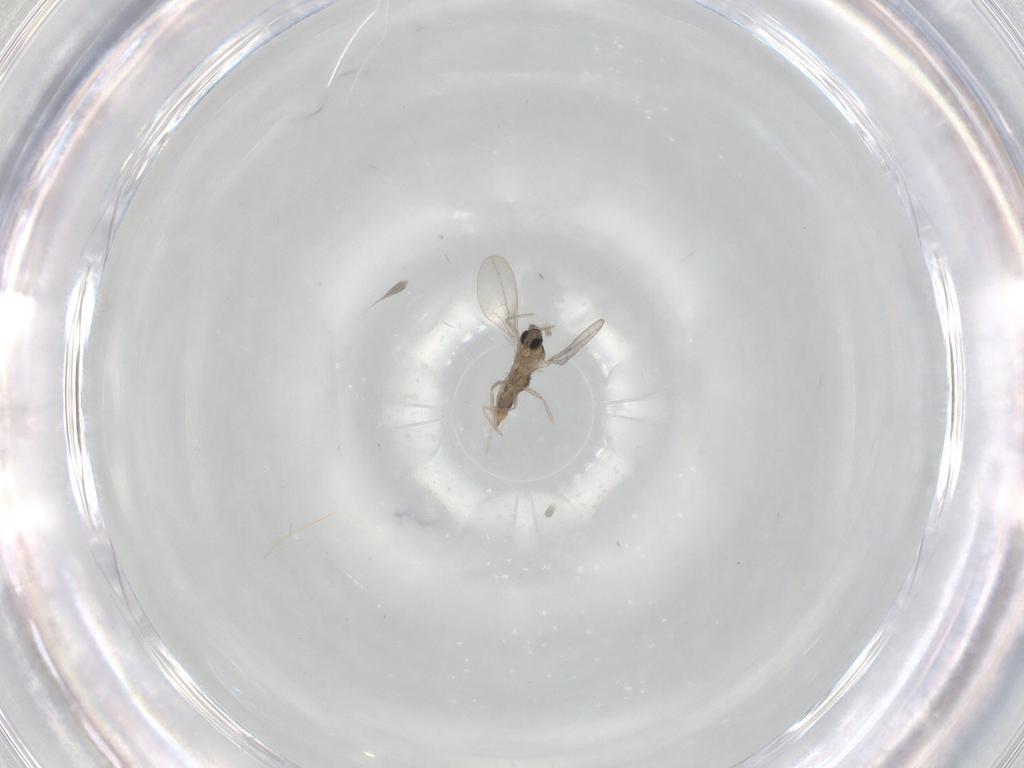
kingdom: Animalia
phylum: Arthropoda
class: Insecta
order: Diptera
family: Cecidomyiidae
